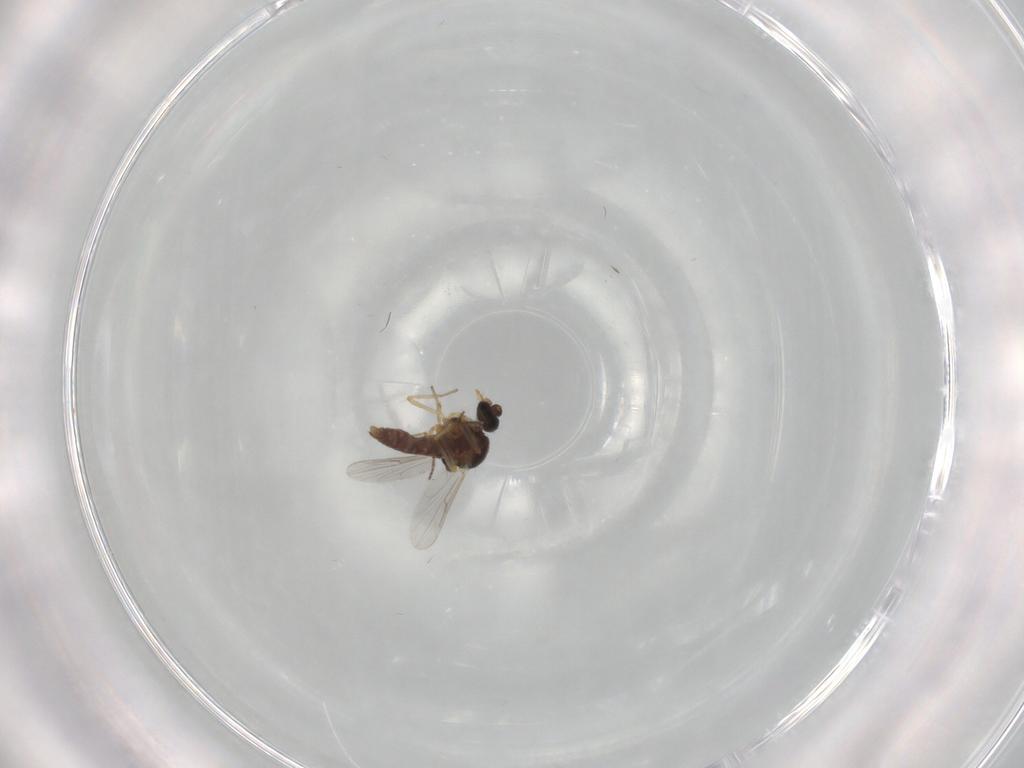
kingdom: Animalia
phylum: Arthropoda
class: Insecta
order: Diptera
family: Ceratopogonidae
